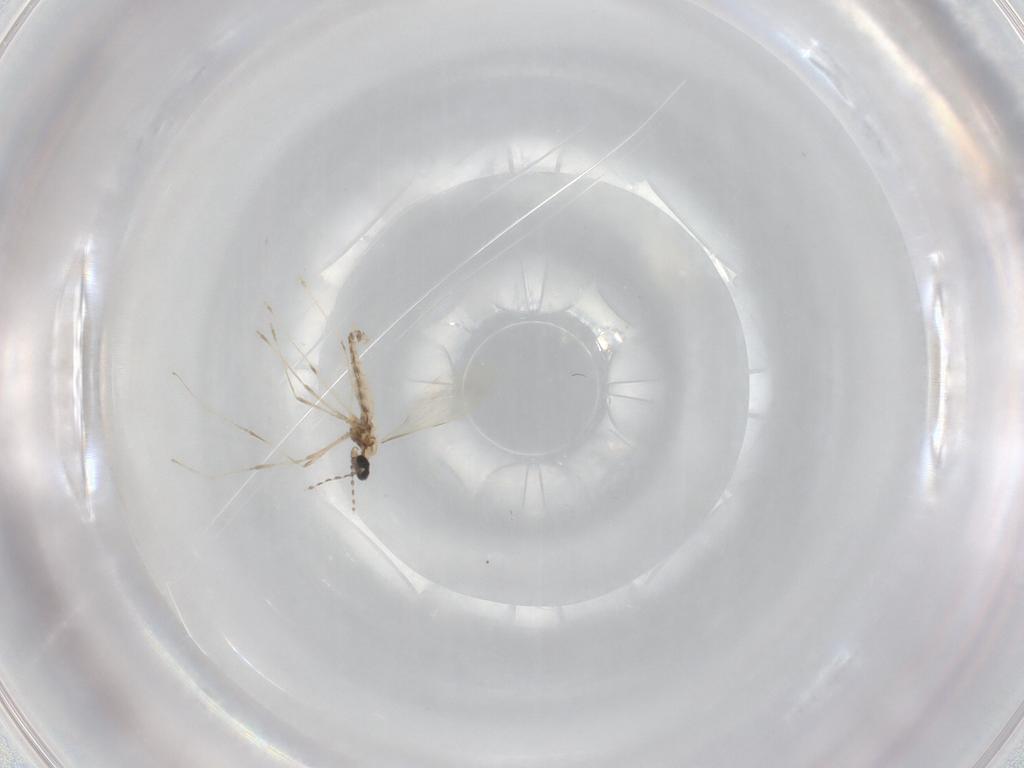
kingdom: Animalia
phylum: Arthropoda
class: Insecta
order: Diptera
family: Cecidomyiidae
